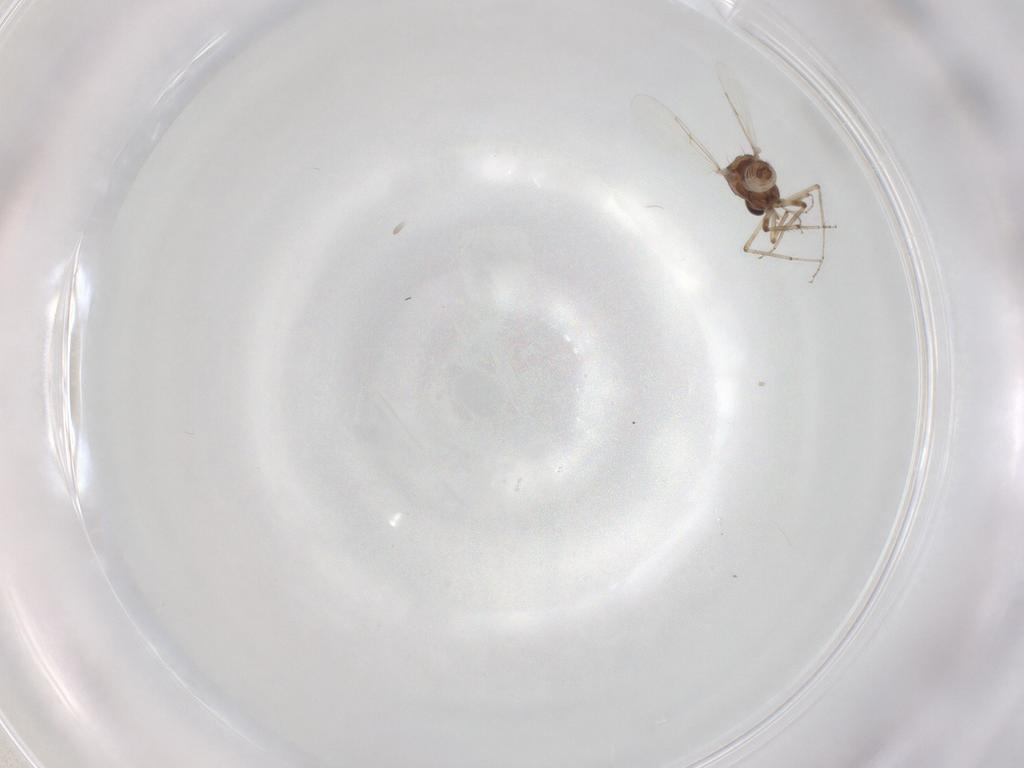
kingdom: Animalia
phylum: Arthropoda
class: Insecta
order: Diptera
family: Ceratopogonidae
